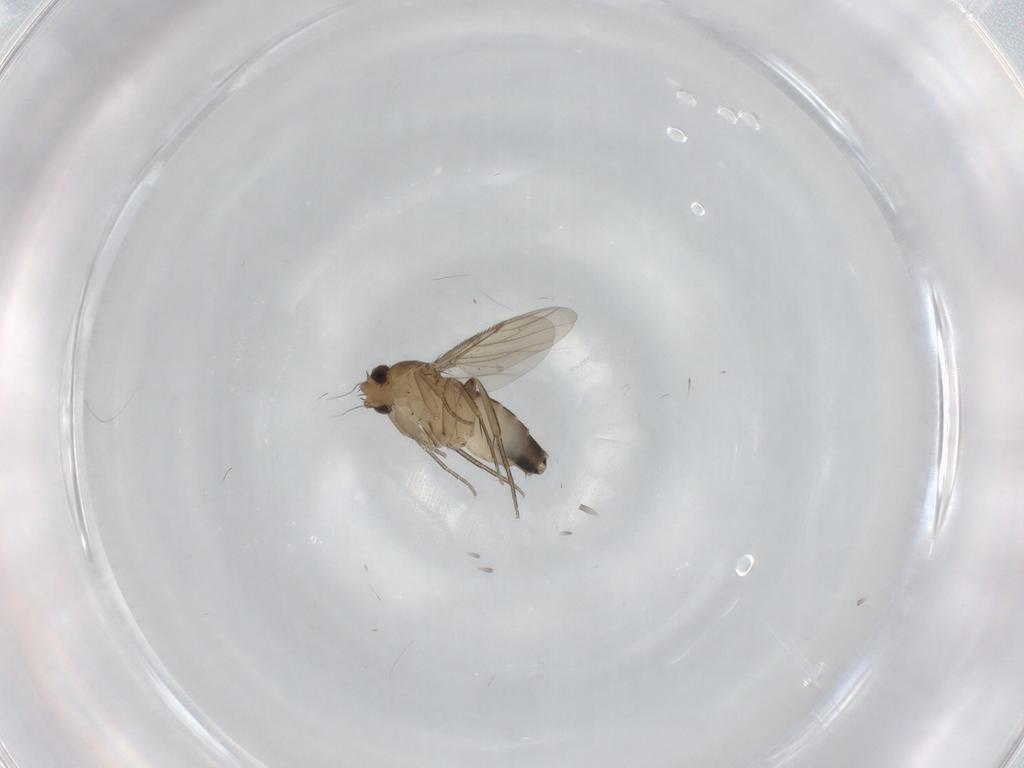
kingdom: Animalia
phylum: Arthropoda
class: Insecta
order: Diptera
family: Phoridae
